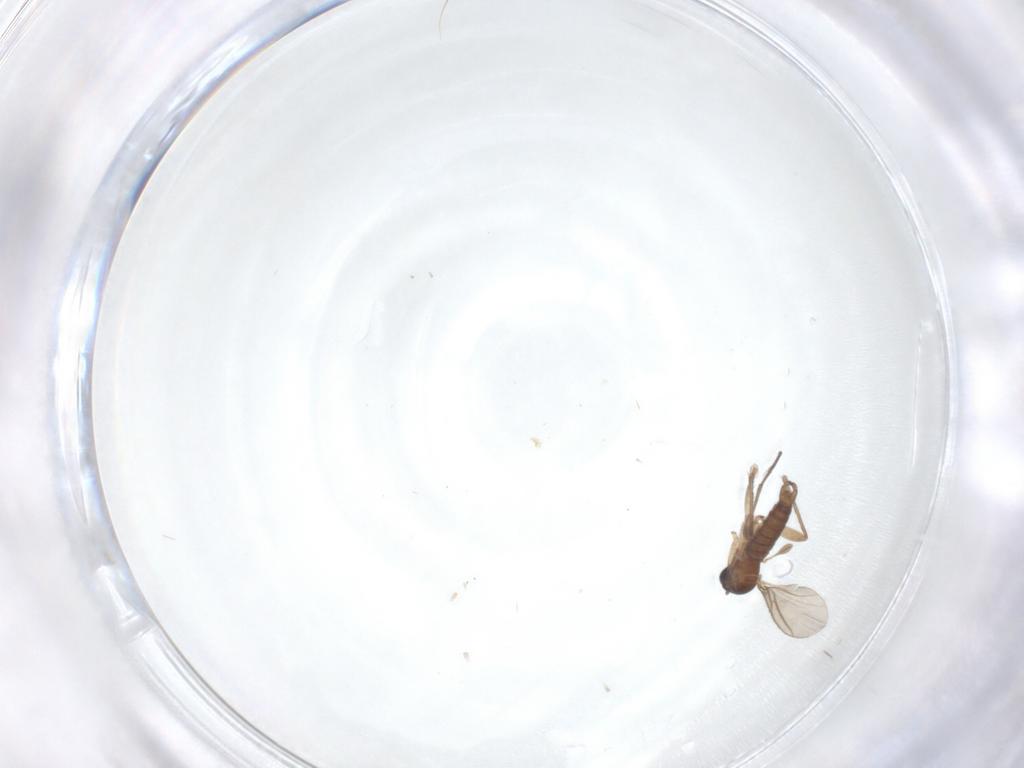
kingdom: Animalia
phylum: Arthropoda
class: Insecta
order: Diptera
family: Sciaridae
